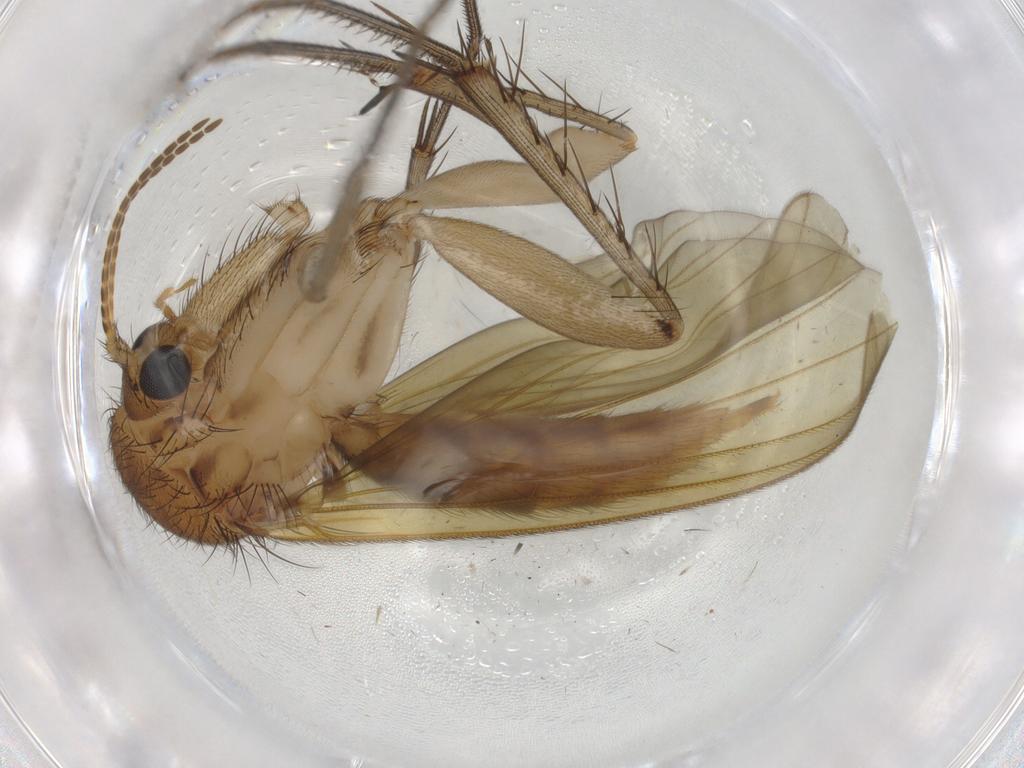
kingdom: Animalia
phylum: Arthropoda
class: Insecta
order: Diptera
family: Mycetophilidae
